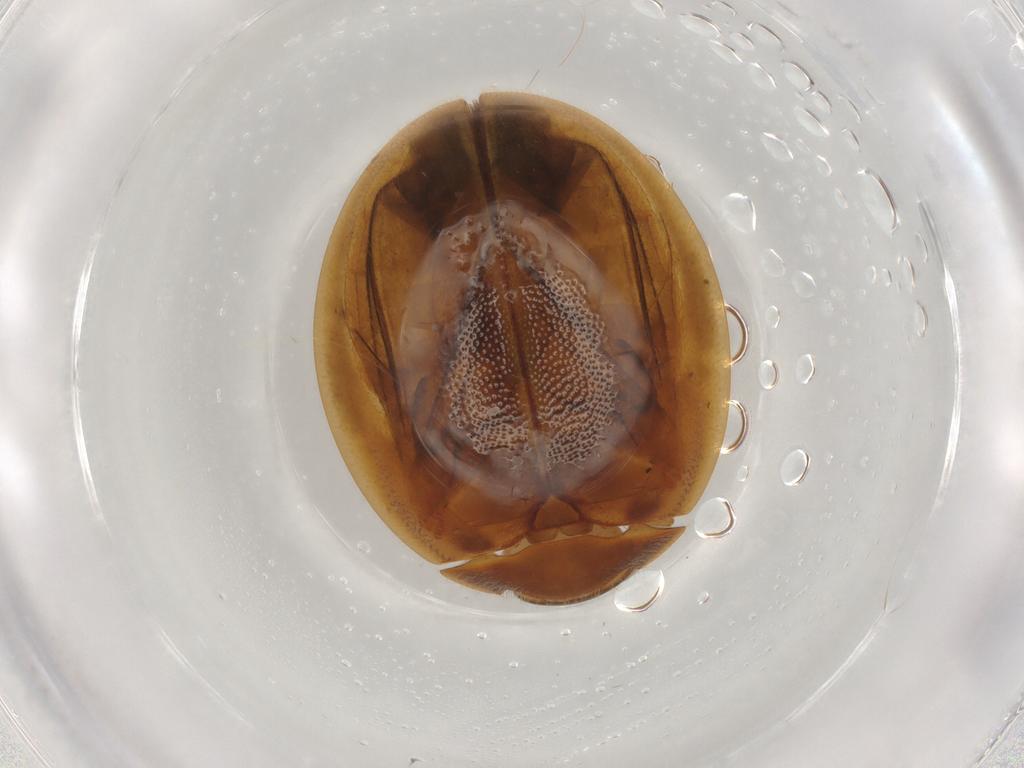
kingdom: Animalia
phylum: Arthropoda
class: Insecta
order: Coleoptera
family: Scirtidae
